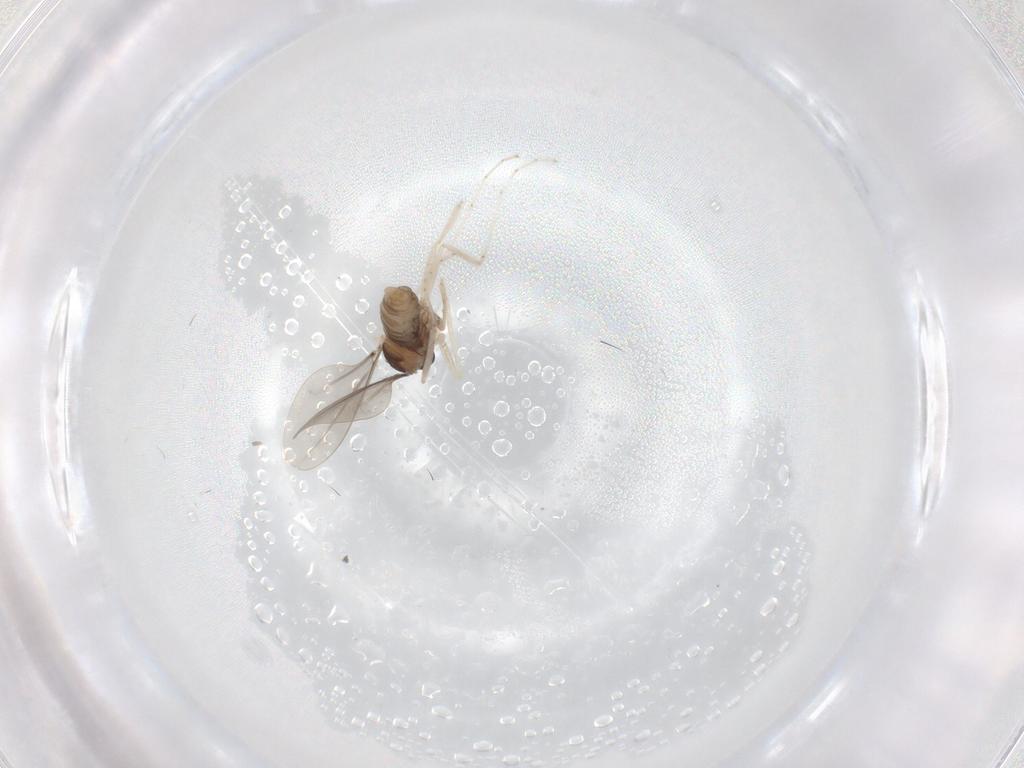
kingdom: Animalia
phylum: Arthropoda
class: Insecta
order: Diptera
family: Cecidomyiidae
